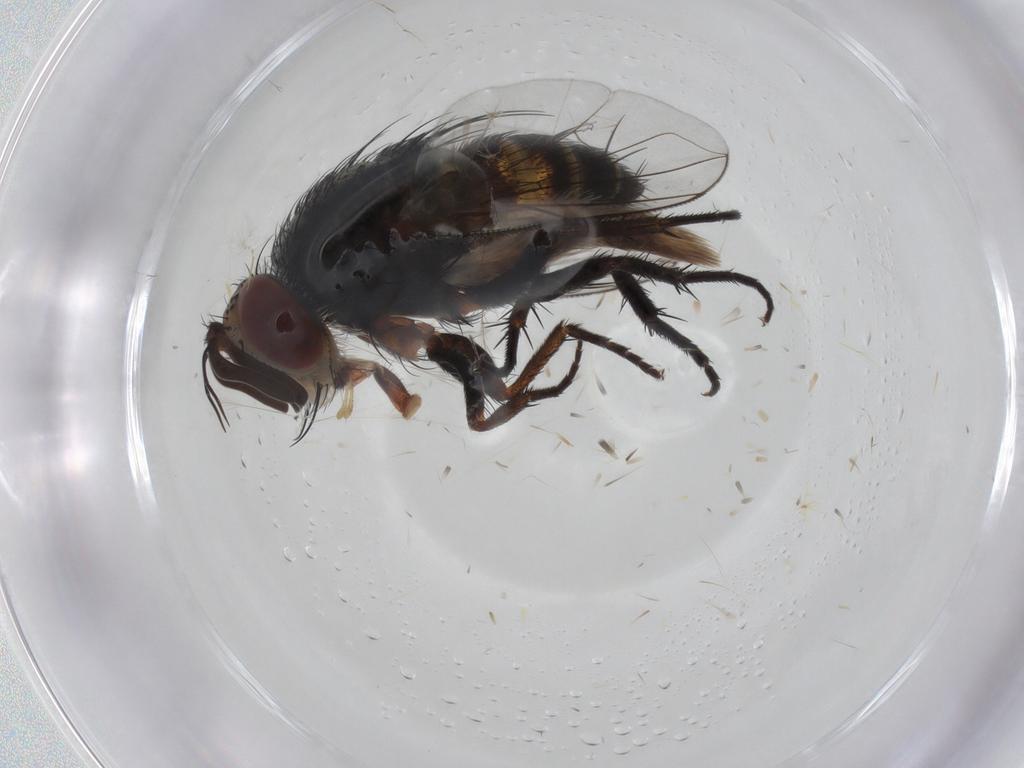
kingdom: Animalia
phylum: Arthropoda
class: Insecta
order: Diptera
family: Tachinidae
